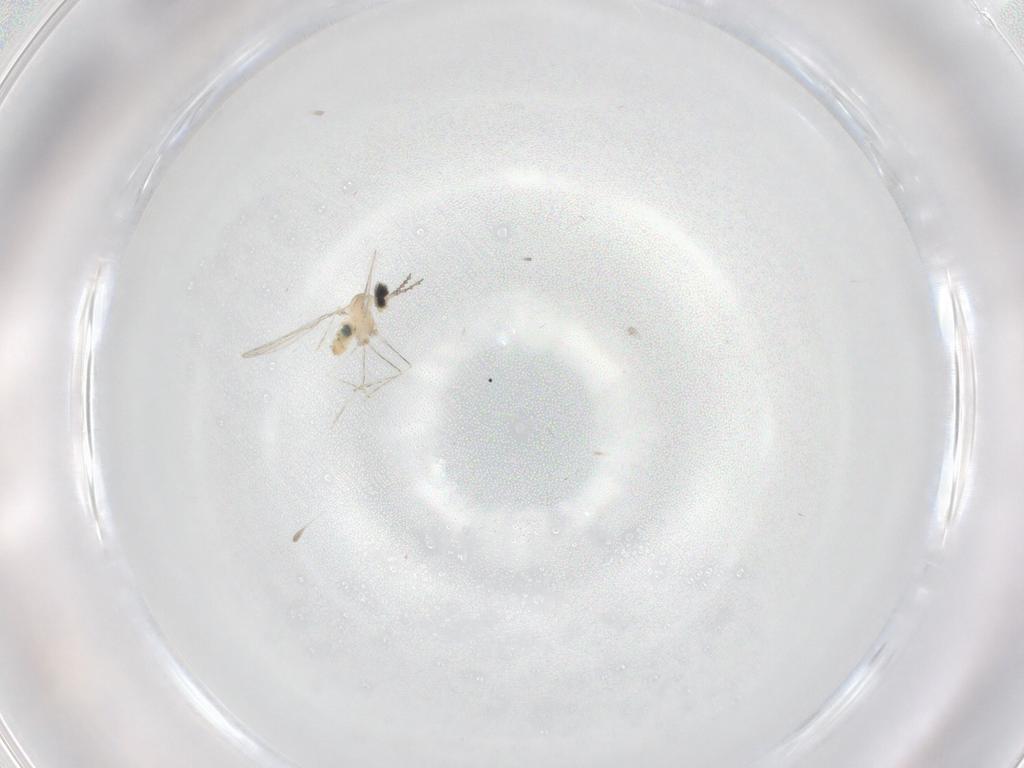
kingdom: Animalia
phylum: Arthropoda
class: Insecta
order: Diptera
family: Cecidomyiidae
